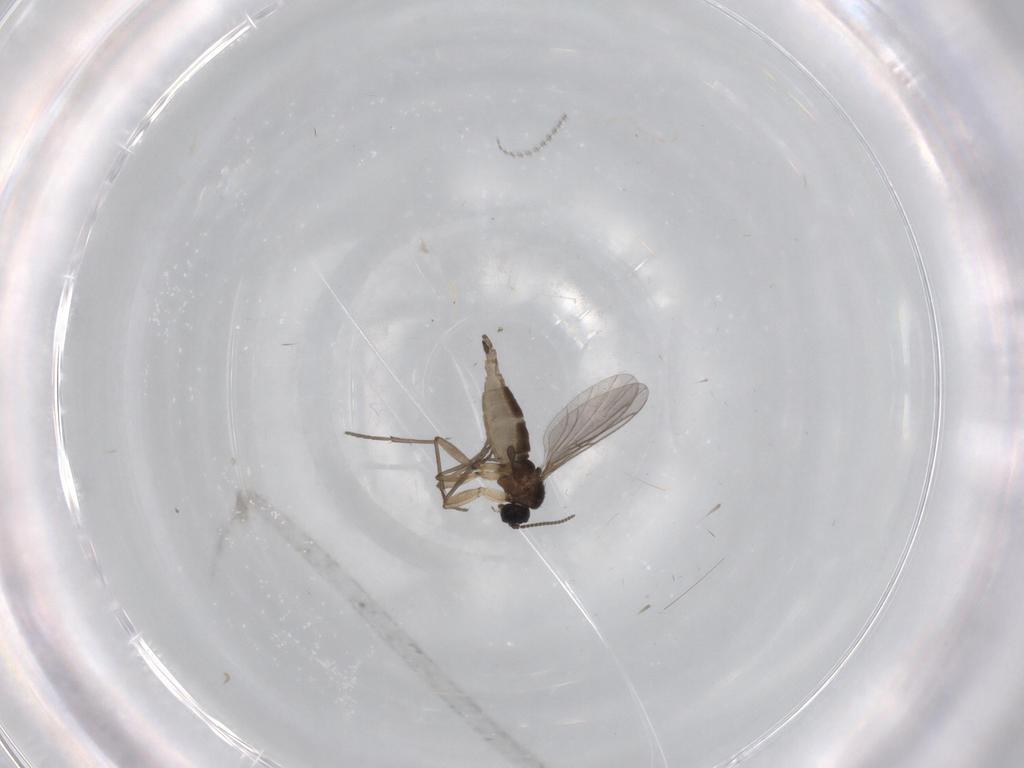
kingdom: Animalia
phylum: Arthropoda
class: Insecta
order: Diptera
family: Sciaridae
